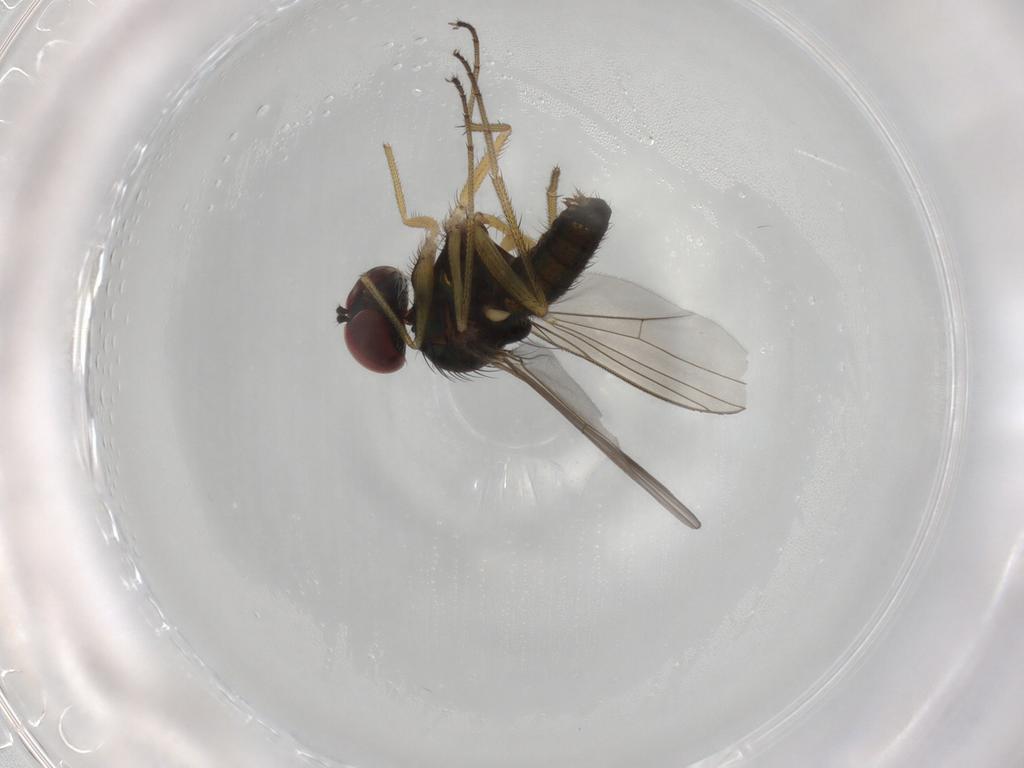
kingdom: Animalia
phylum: Arthropoda
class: Insecta
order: Diptera
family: Dolichopodidae
